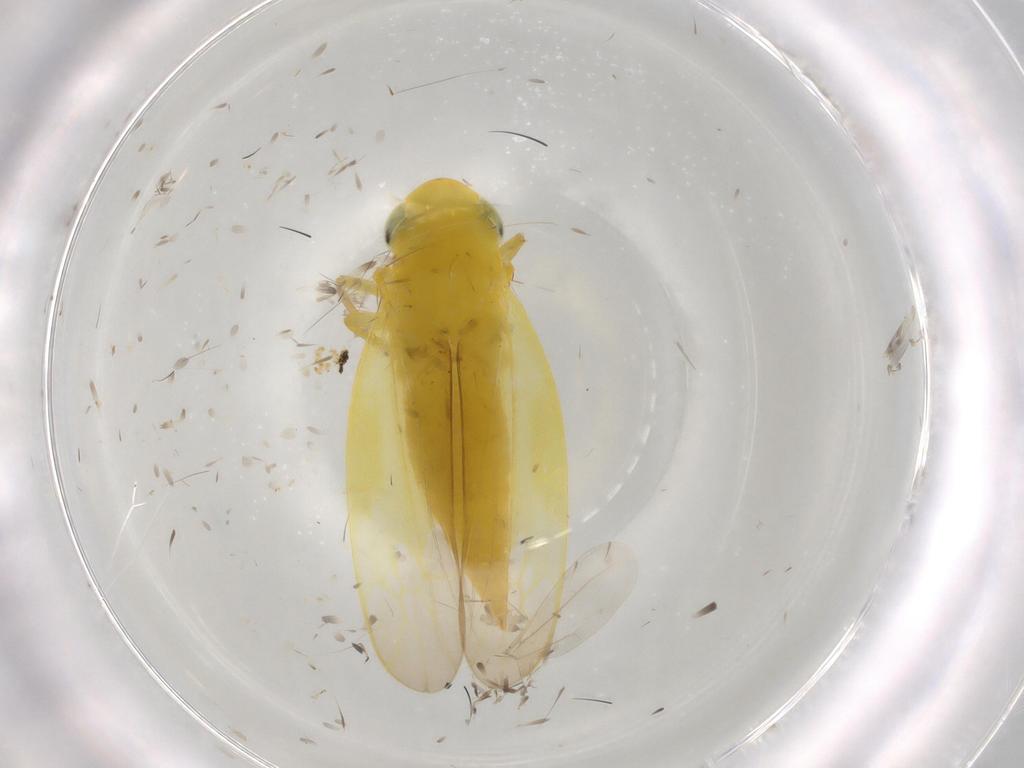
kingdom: Animalia
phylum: Arthropoda
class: Insecta
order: Hemiptera
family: Cicadellidae
